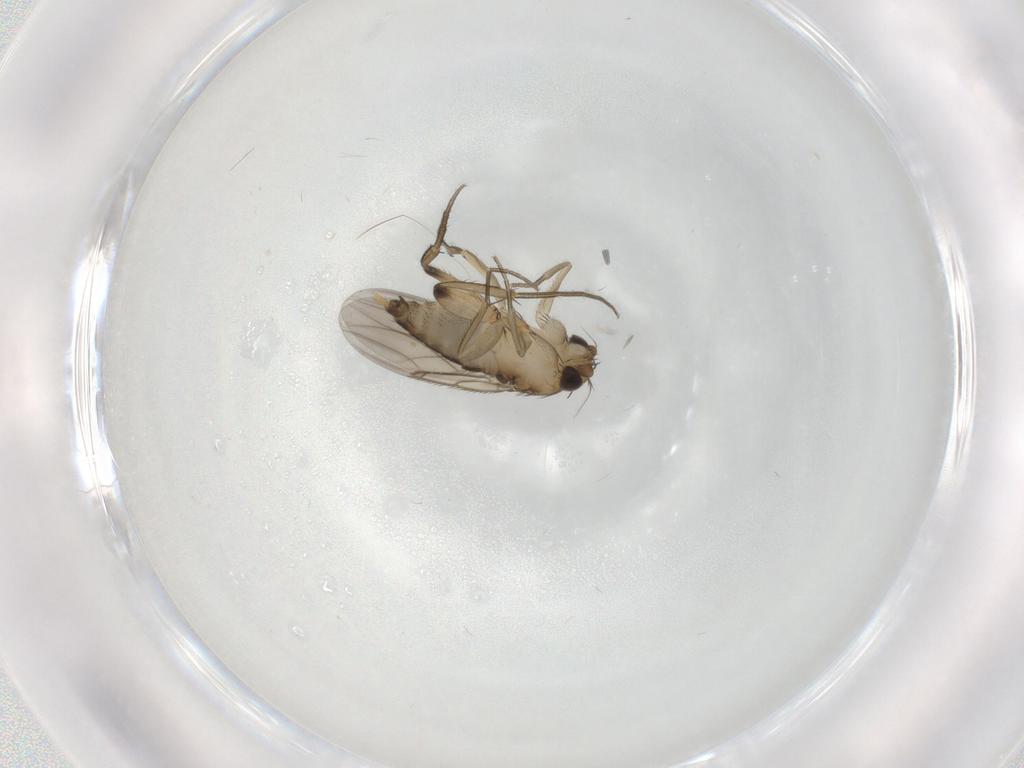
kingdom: Animalia
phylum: Arthropoda
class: Insecta
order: Diptera
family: Phoridae
